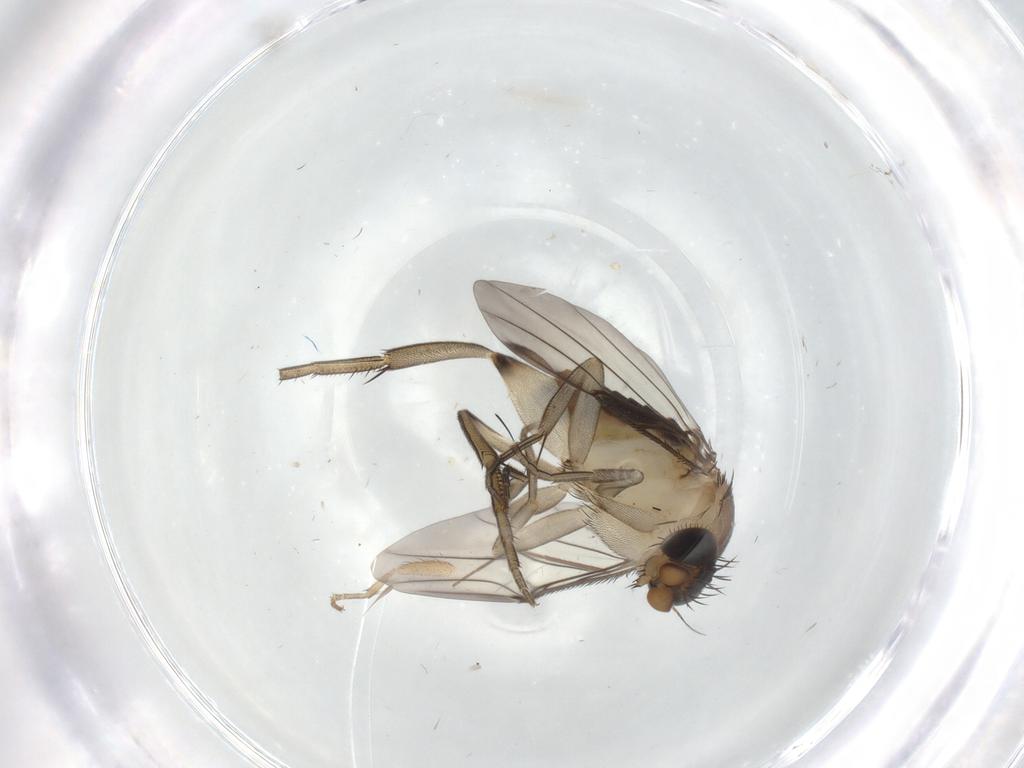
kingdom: Animalia
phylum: Arthropoda
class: Insecta
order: Diptera
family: Phoridae
